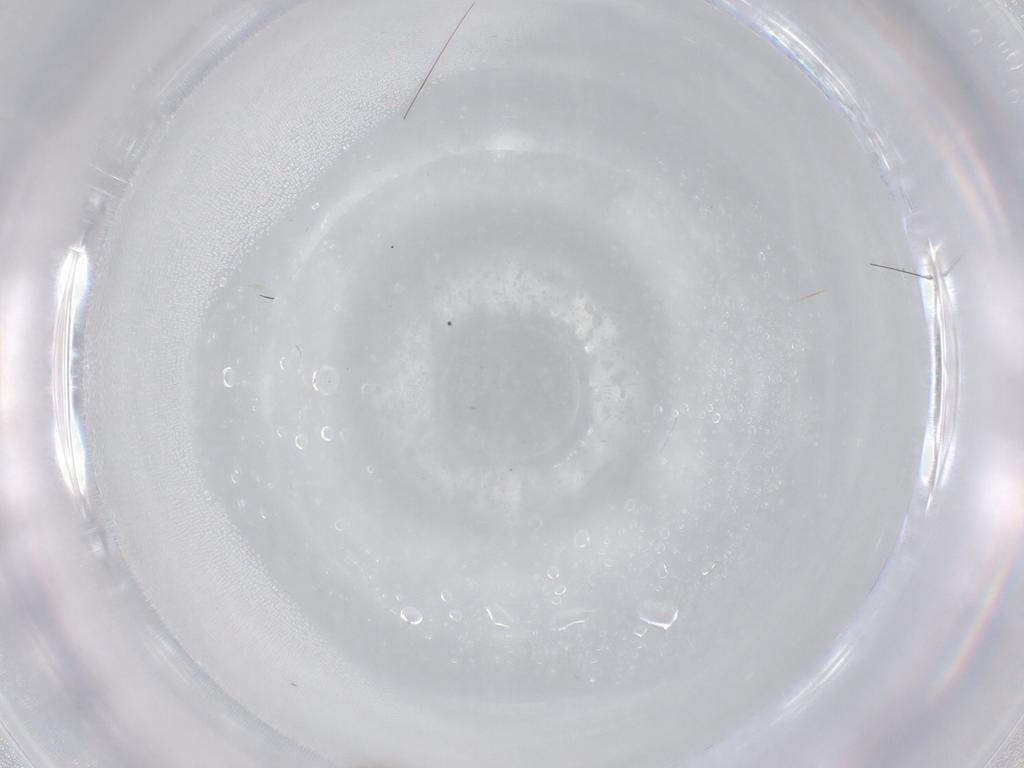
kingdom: Animalia
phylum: Arthropoda
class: Insecta
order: Diptera
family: Cecidomyiidae
